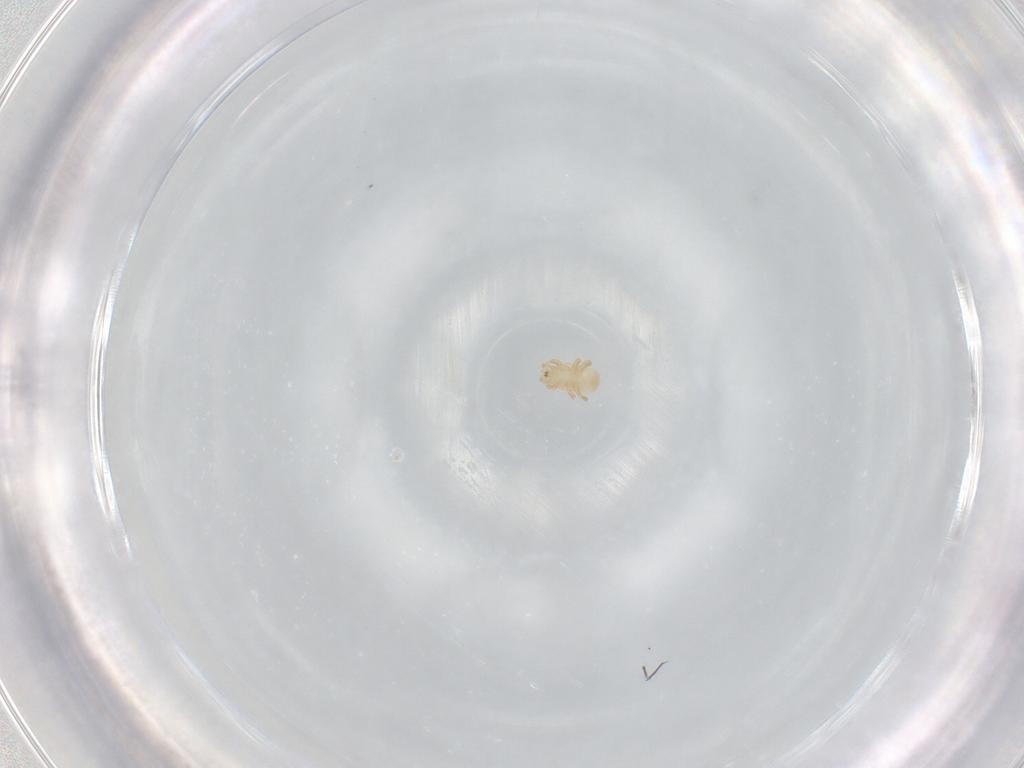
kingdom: Animalia
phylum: Arthropoda
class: Arachnida
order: Mesostigmata
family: Halolaelapidae
